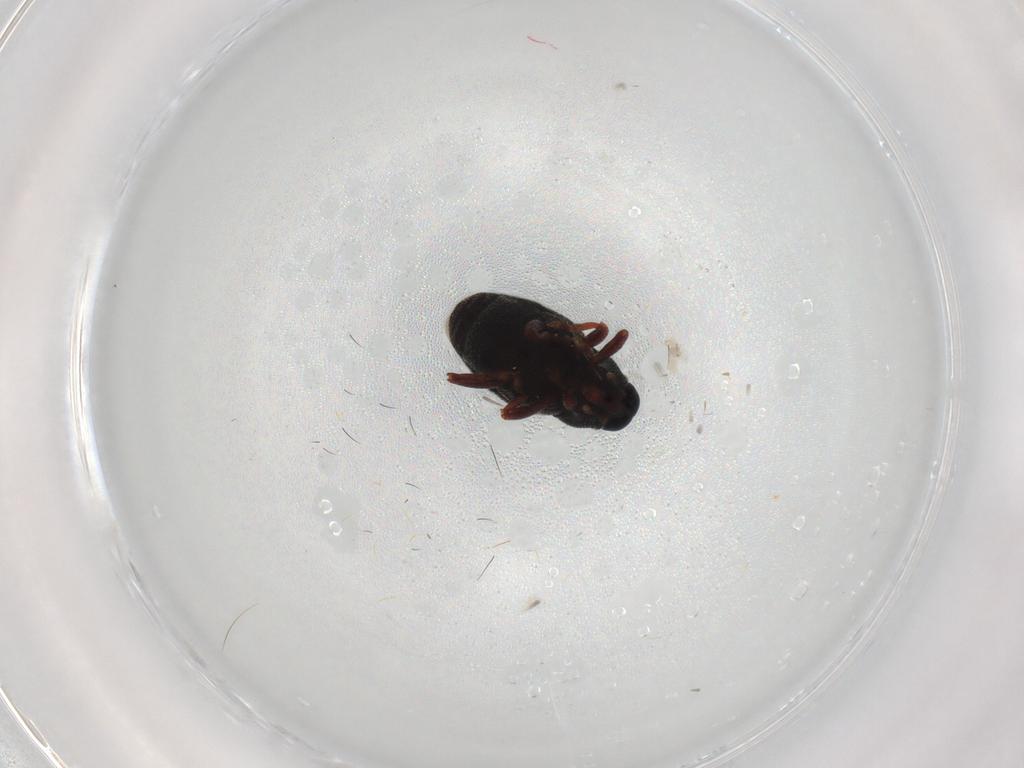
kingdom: Animalia
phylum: Arthropoda
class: Insecta
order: Coleoptera
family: Curculionidae
